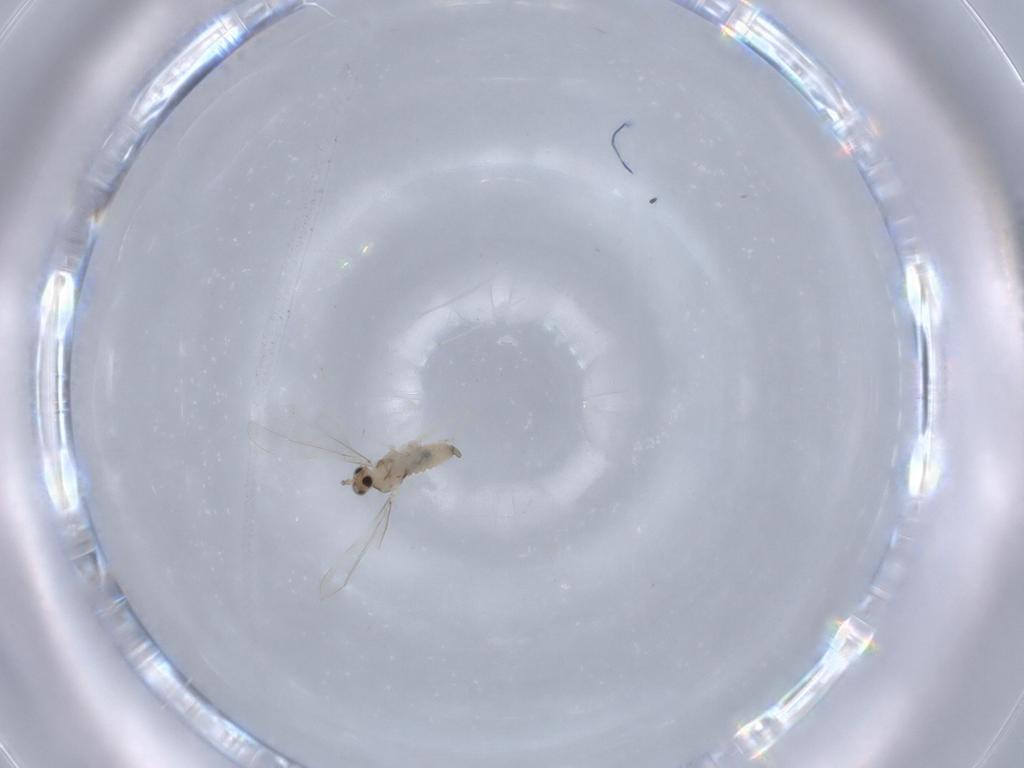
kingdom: Animalia
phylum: Arthropoda
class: Insecta
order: Diptera
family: Cecidomyiidae
